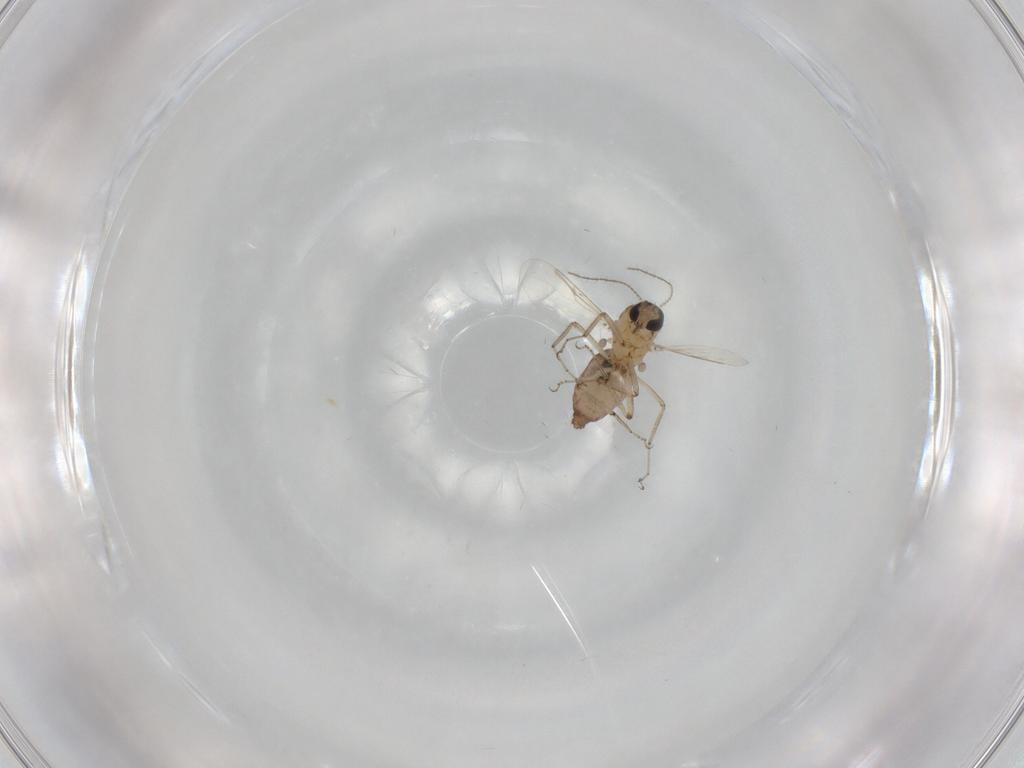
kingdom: Animalia
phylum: Arthropoda
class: Insecta
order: Diptera
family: Ceratopogonidae
